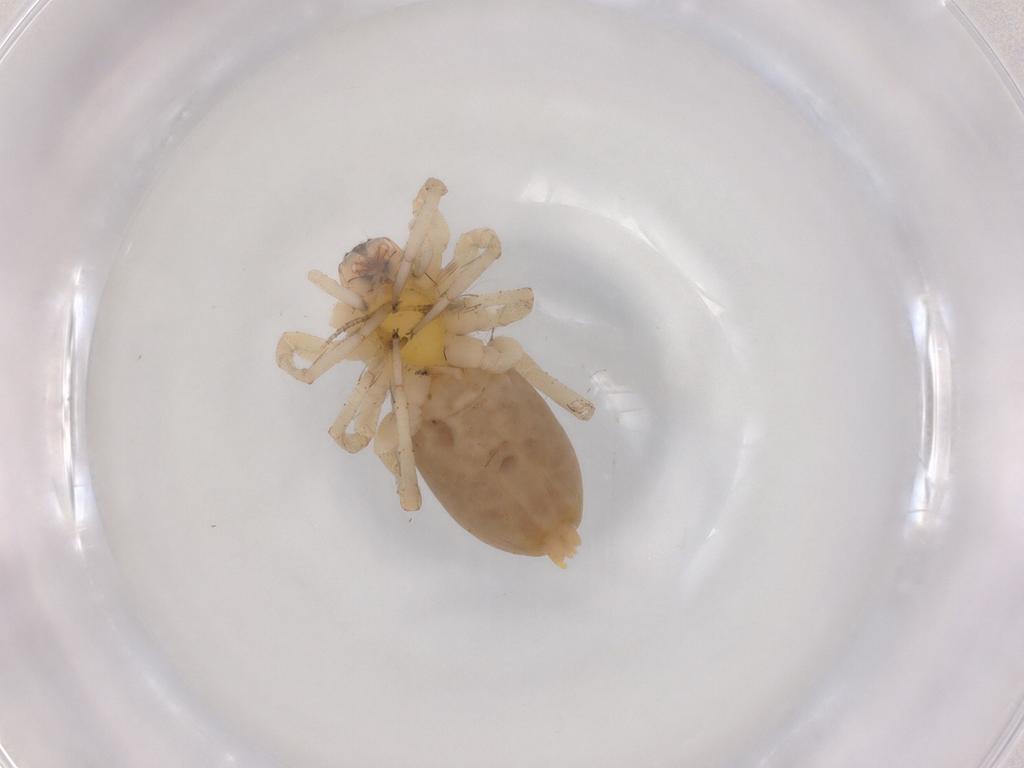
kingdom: Animalia
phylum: Arthropoda
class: Arachnida
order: Araneae
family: Anyphaenidae
